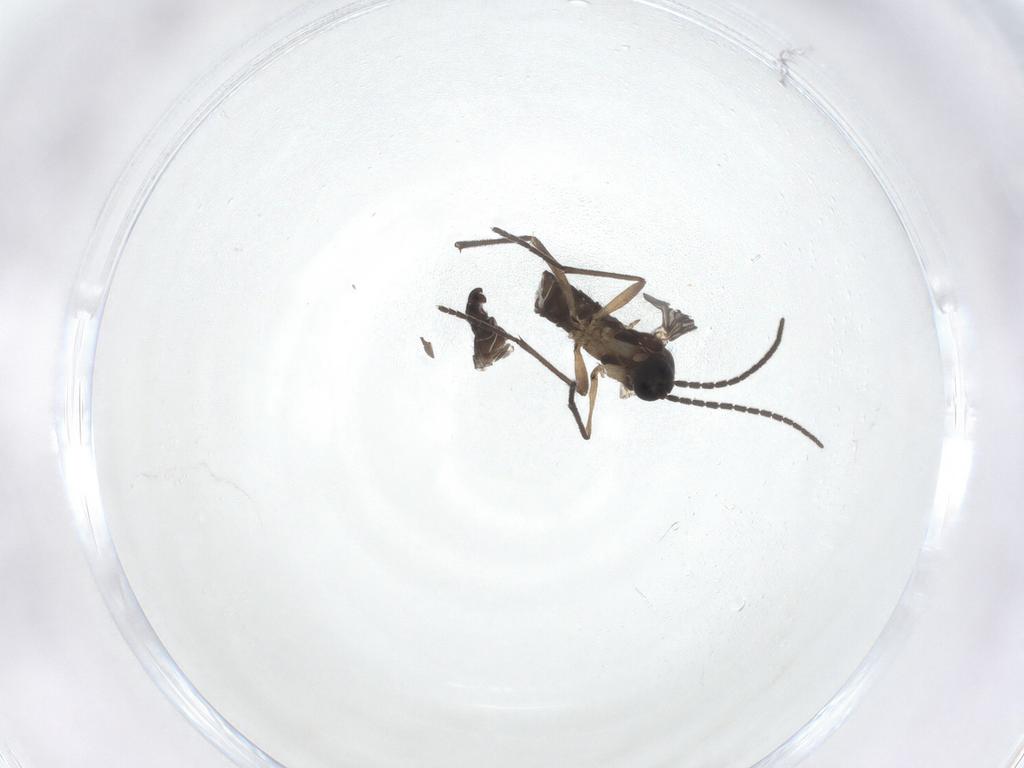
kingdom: Animalia
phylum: Arthropoda
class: Insecta
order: Diptera
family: Sciaridae
